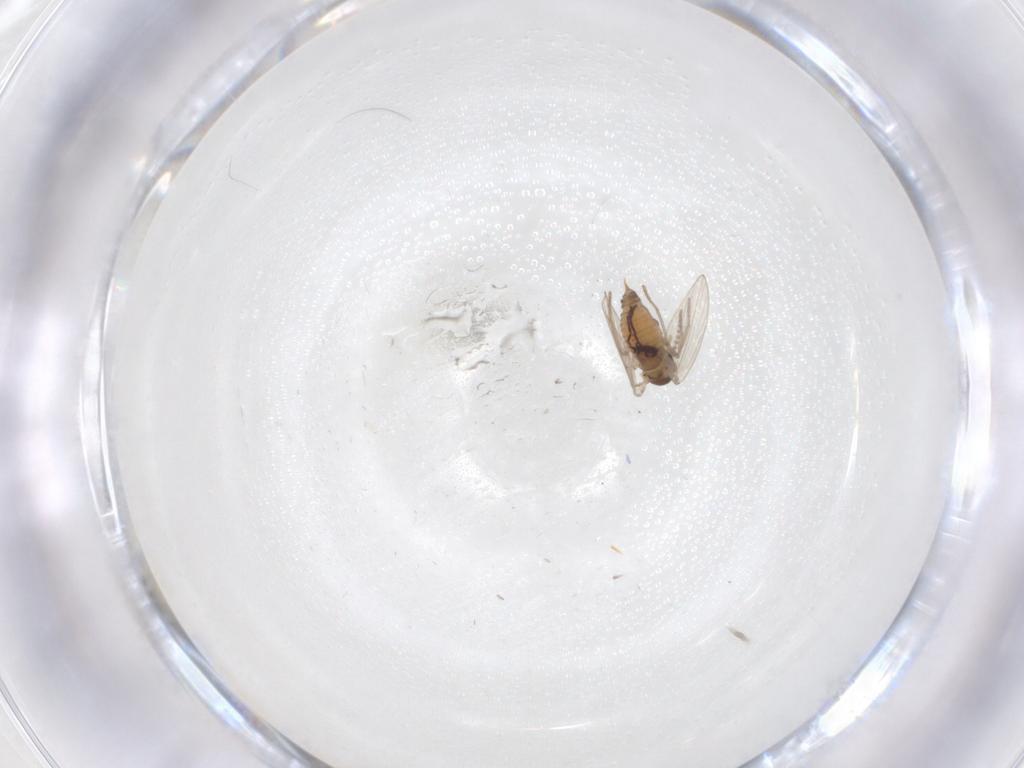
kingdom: Animalia
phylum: Arthropoda
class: Insecta
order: Diptera
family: Psychodidae
